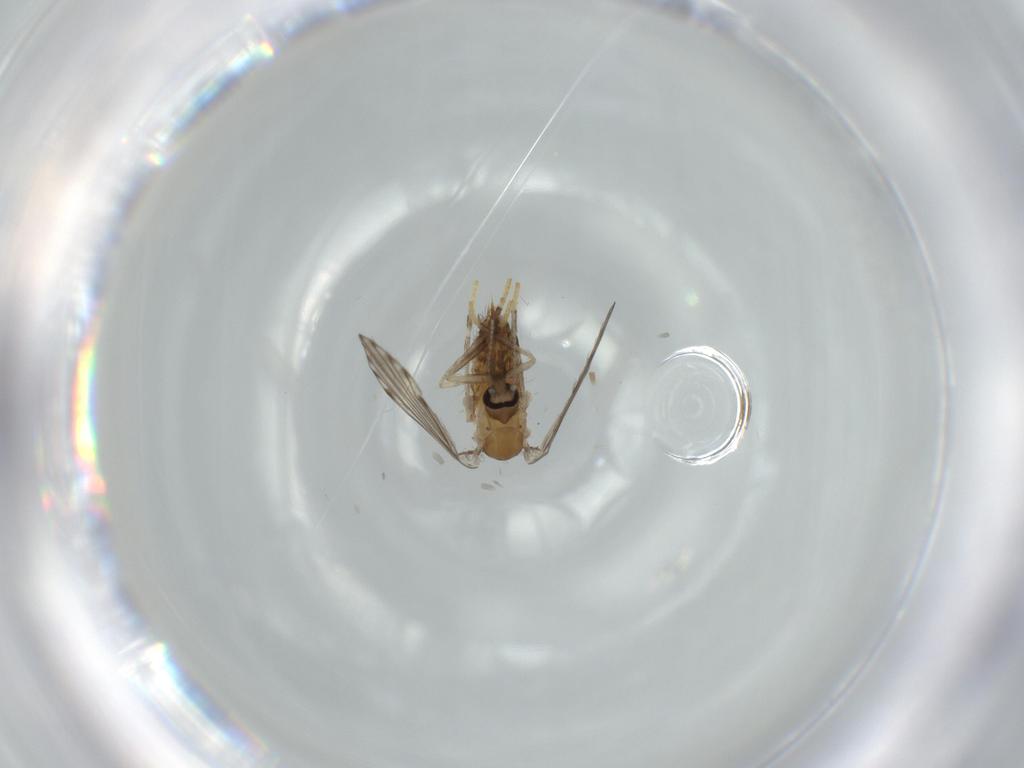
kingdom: Animalia
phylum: Arthropoda
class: Insecta
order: Diptera
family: Psychodidae
